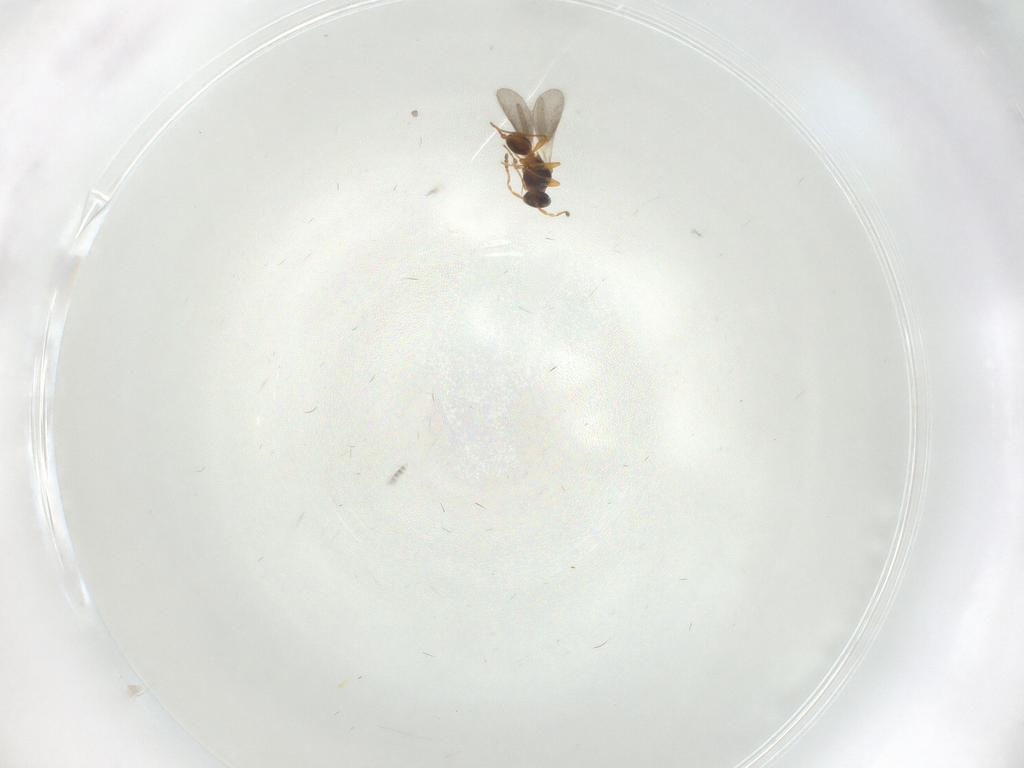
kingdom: Animalia
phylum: Arthropoda
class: Insecta
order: Hymenoptera
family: Platygastridae
